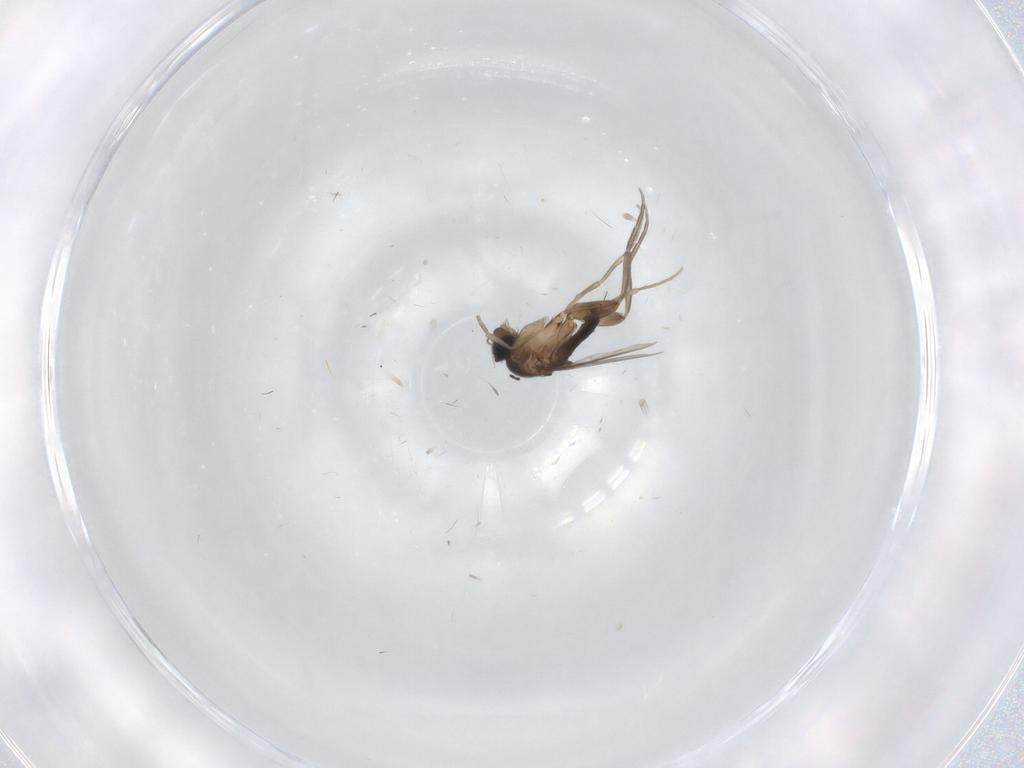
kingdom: Animalia
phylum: Arthropoda
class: Insecta
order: Diptera
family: Phoridae
